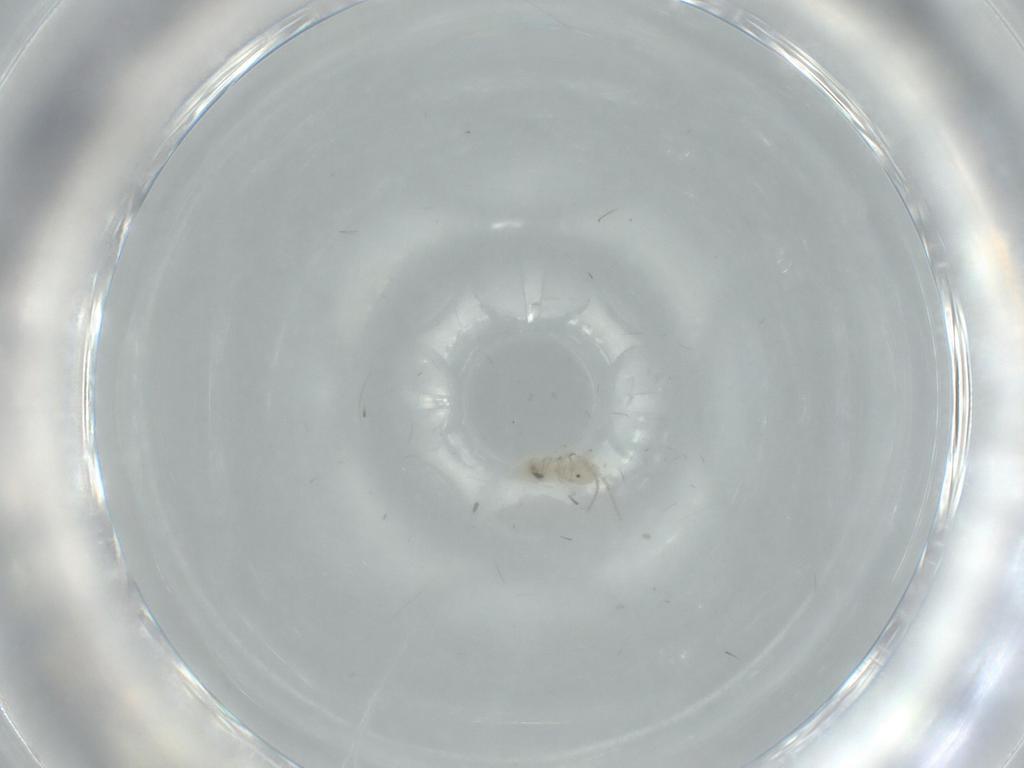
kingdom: Animalia
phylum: Arthropoda
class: Insecta
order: Psocodea
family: Caeciliusidae
